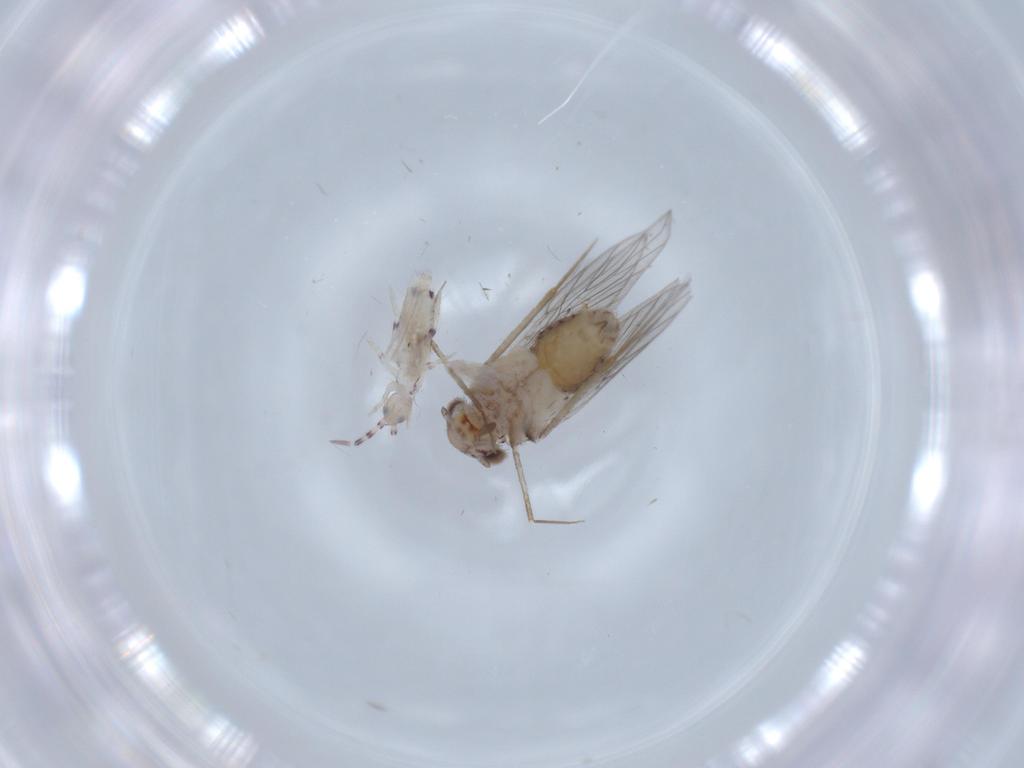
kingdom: Animalia
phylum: Arthropoda
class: Insecta
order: Psocodea
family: Lepidopsocidae
